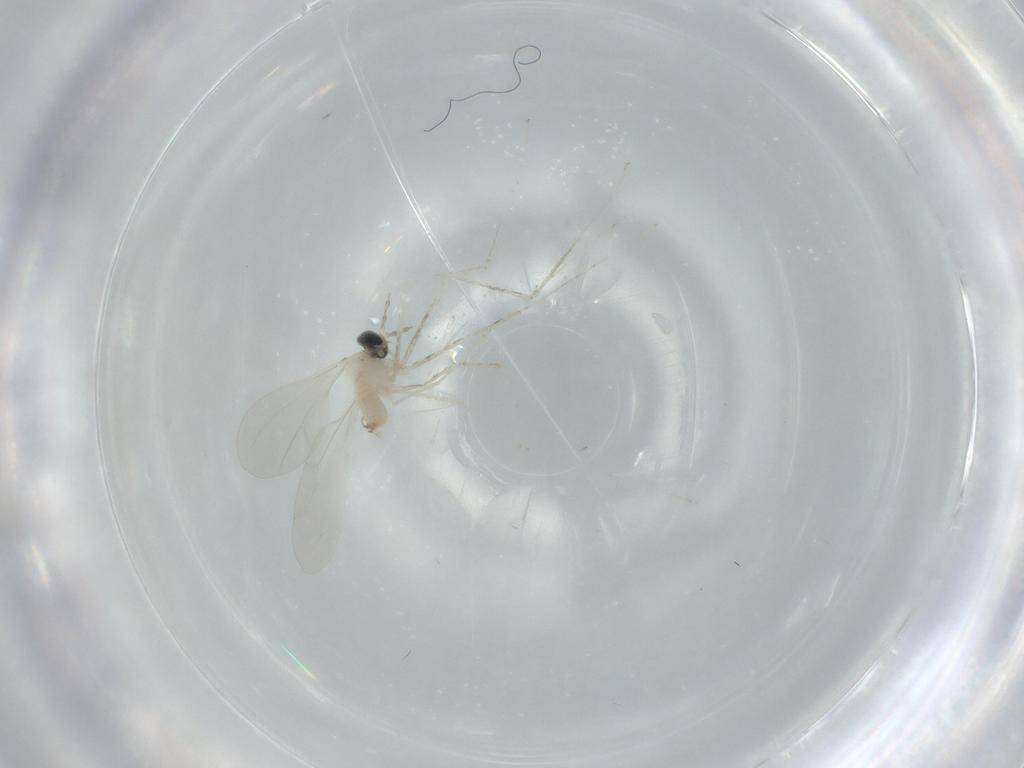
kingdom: Animalia
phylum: Arthropoda
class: Insecta
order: Diptera
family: Cecidomyiidae
